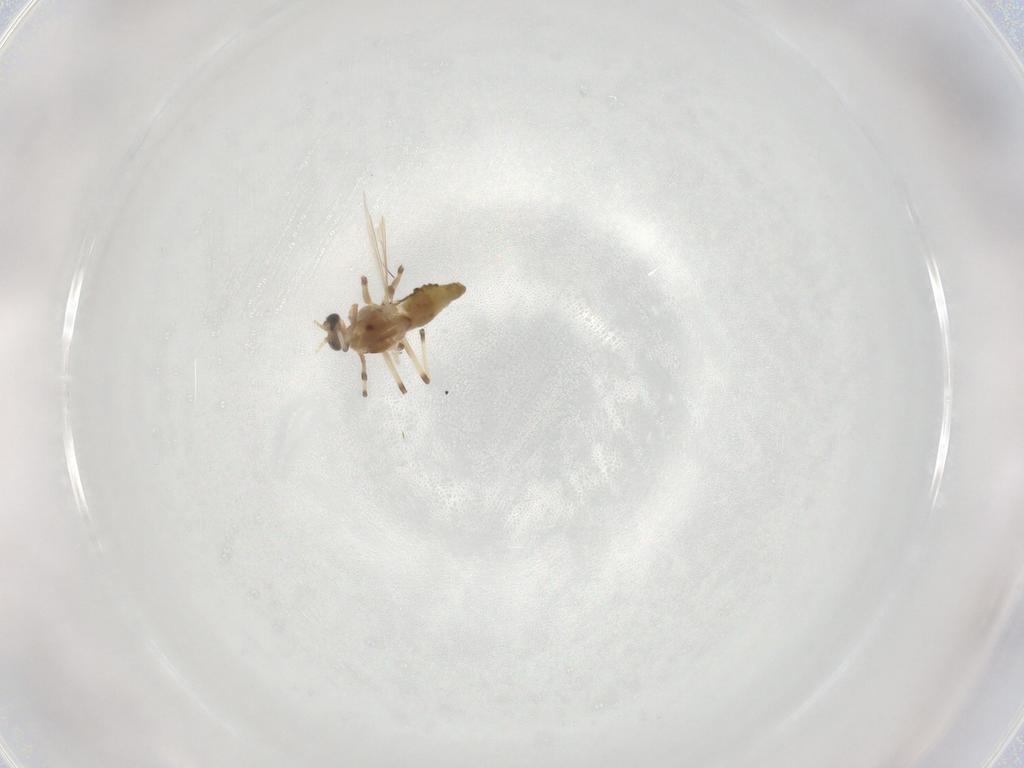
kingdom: Animalia
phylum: Arthropoda
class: Insecta
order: Diptera
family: Chironomidae
